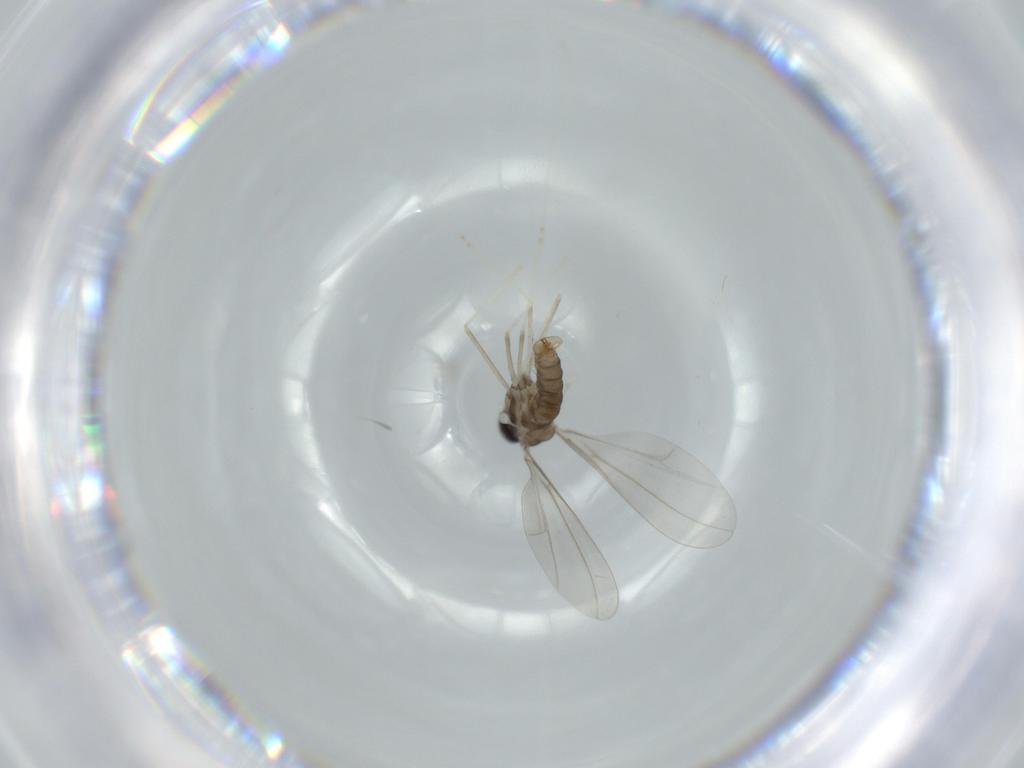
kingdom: Animalia
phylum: Arthropoda
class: Insecta
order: Diptera
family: Cecidomyiidae
